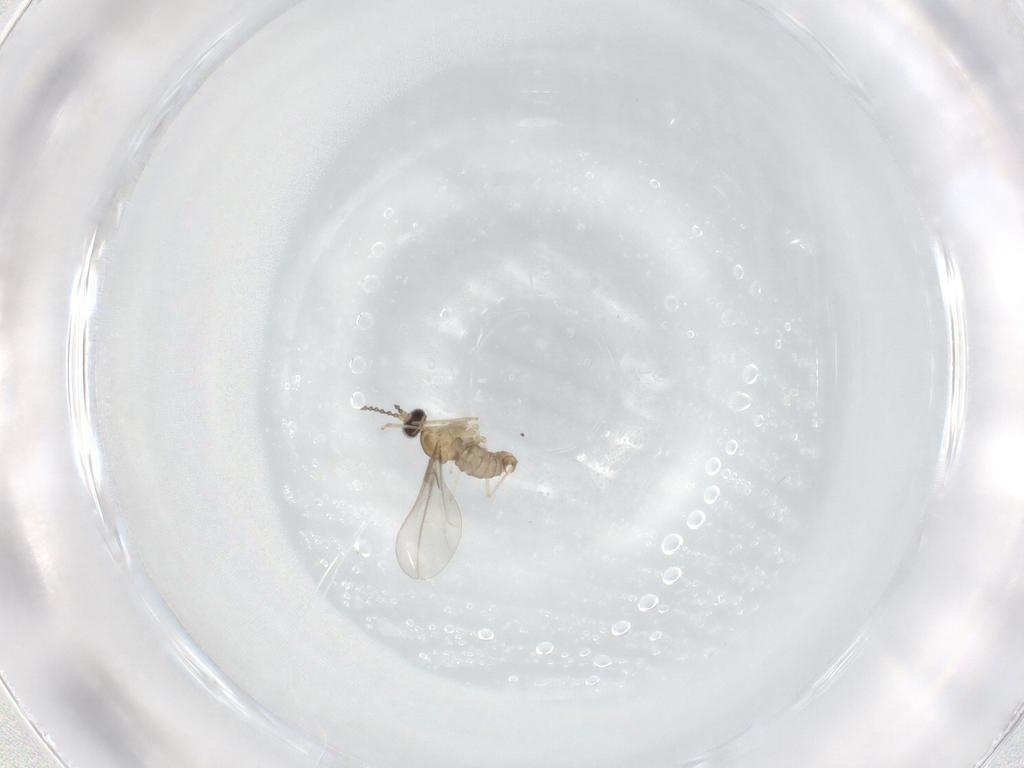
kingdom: Animalia
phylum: Arthropoda
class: Insecta
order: Diptera
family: Cecidomyiidae
